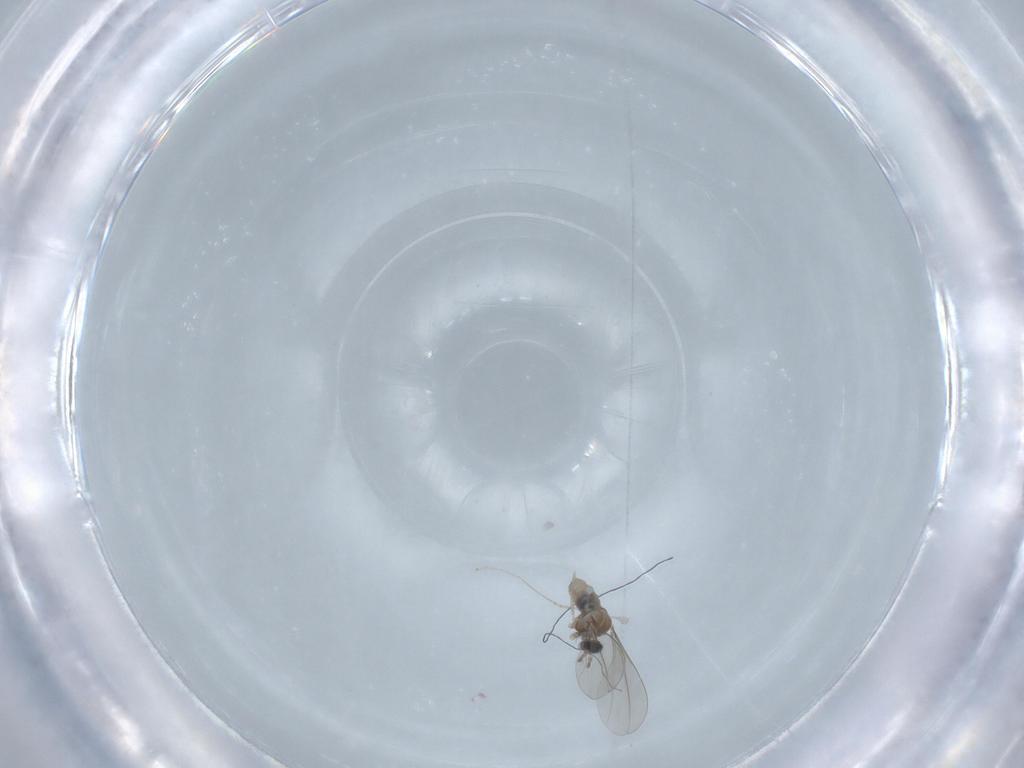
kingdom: Animalia
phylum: Arthropoda
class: Insecta
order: Diptera
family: Cecidomyiidae
